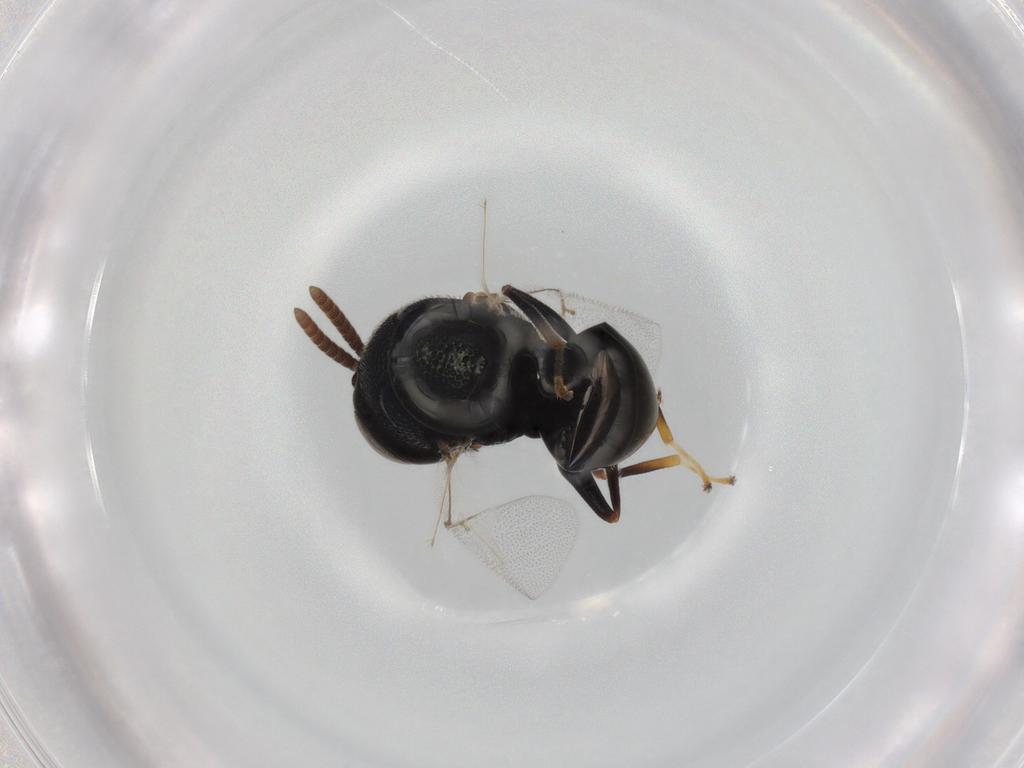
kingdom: Animalia
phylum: Arthropoda
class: Insecta
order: Hymenoptera
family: Perilampidae
